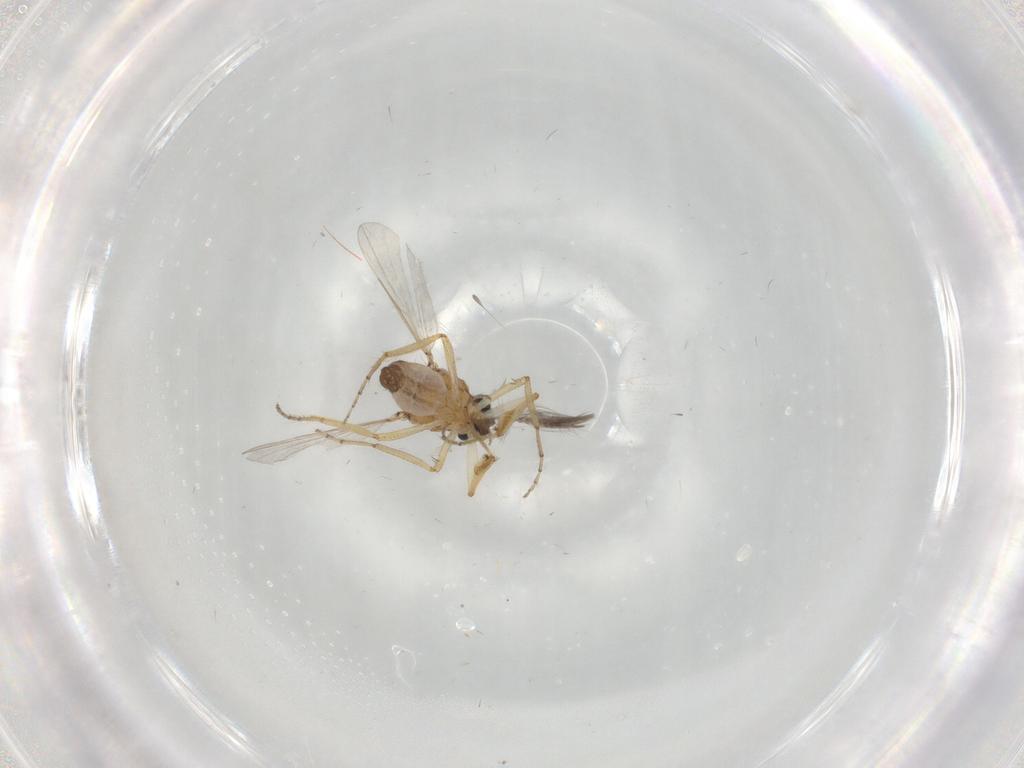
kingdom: Animalia
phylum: Arthropoda
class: Insecta
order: Diptera
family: Ceratopogonidae
